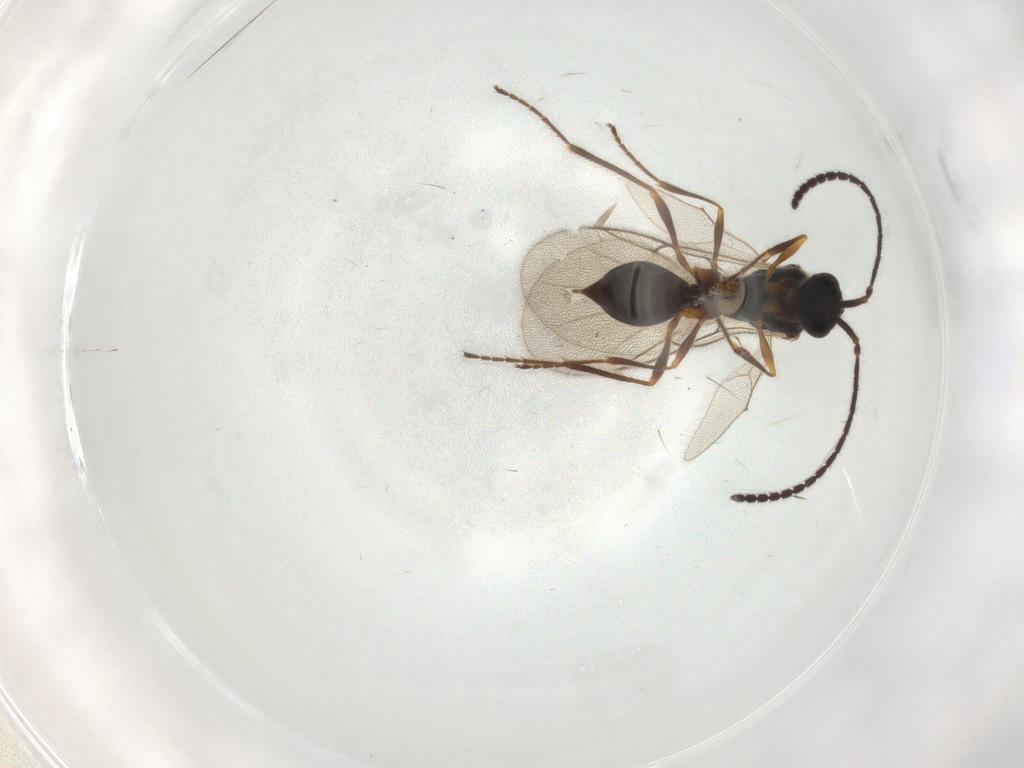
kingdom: Animalia
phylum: Arthropoda
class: Insecta
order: Hymenoptera
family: Diapriidae
